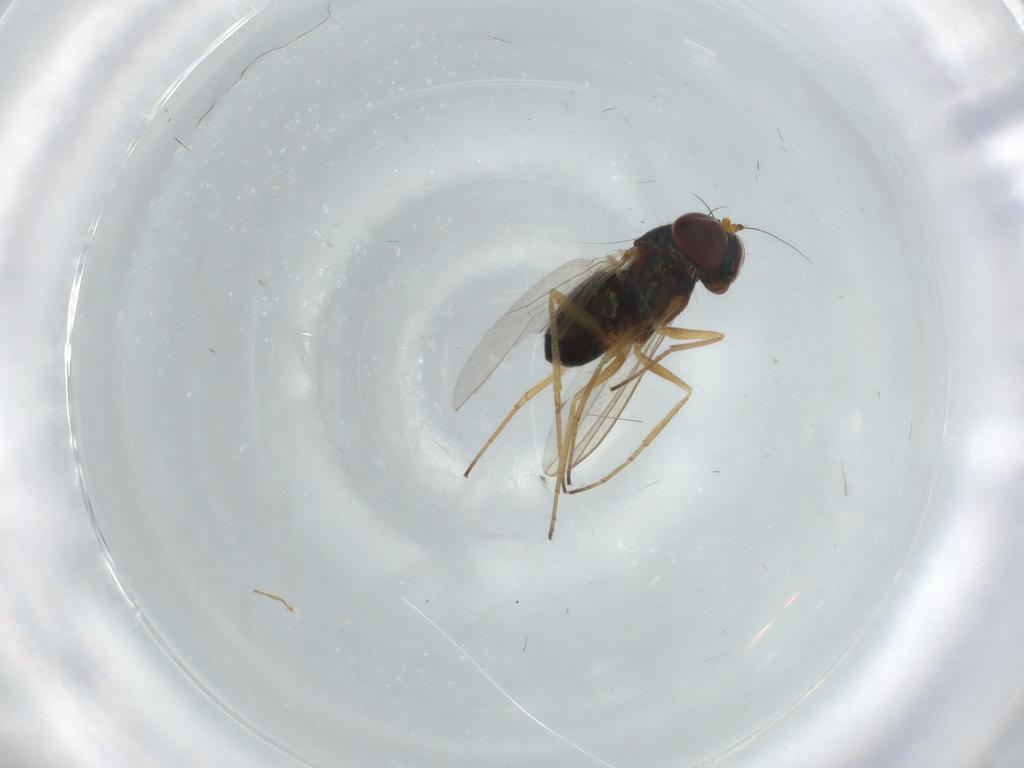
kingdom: Animalia
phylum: Arthropoda
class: Insecta
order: Diptera
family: Dolichopodidae
